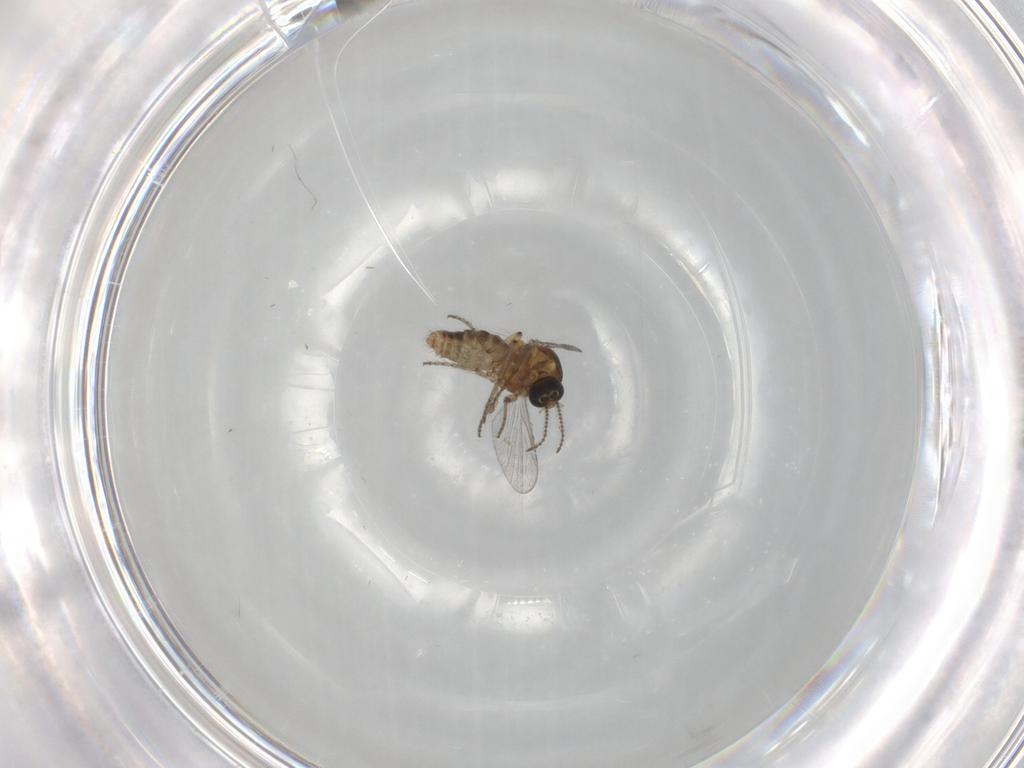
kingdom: Animalia
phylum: Arthropoda
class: Insecta
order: Diptera
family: Ceratopogonidae
